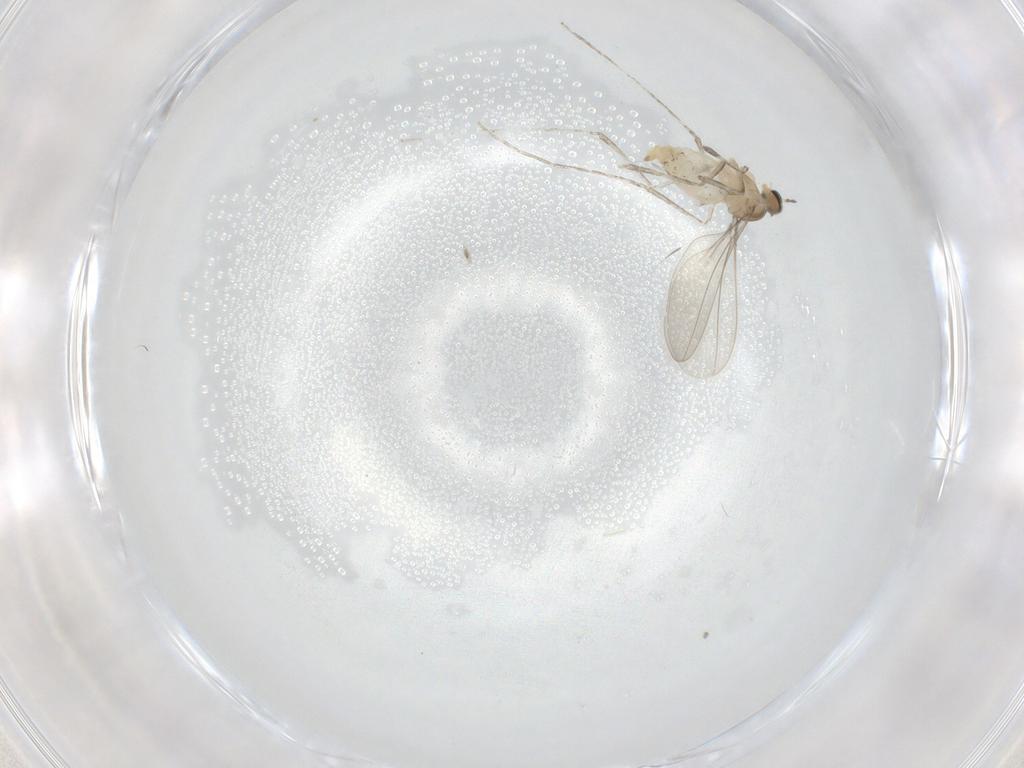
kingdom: Animalia
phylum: Arthropoda
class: Insecta
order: Diptera
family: Cecidomyiidae
